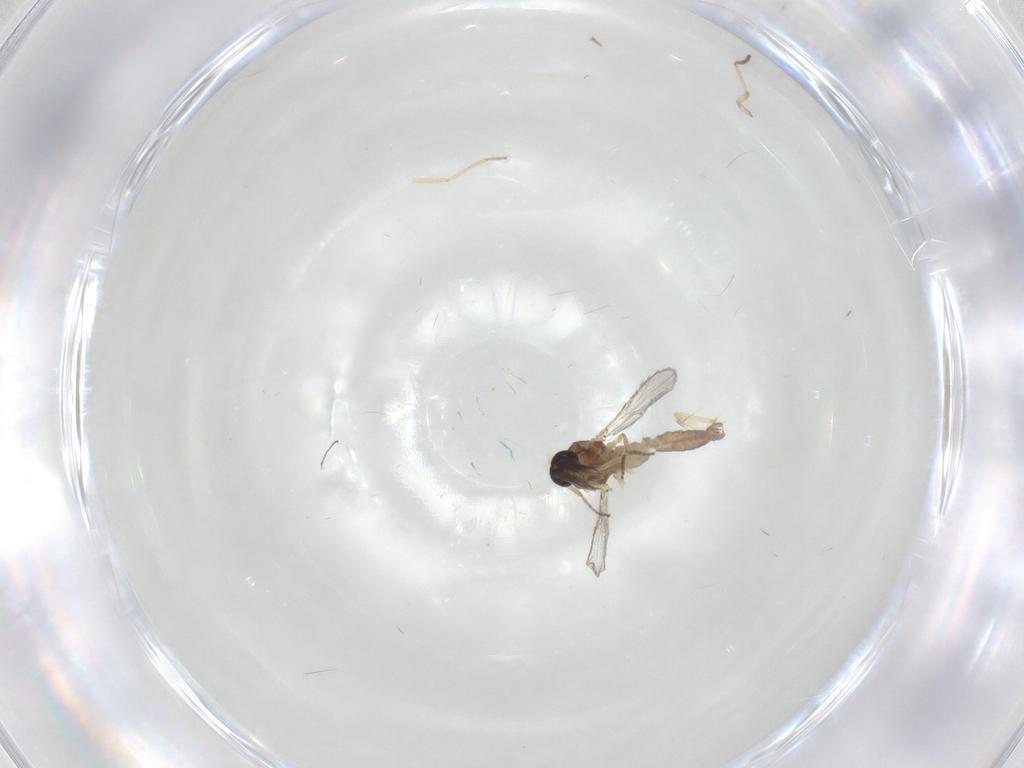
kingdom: Animalia
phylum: Arthropoda
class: Insecta
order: Diptera
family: Ceratopogonidae
